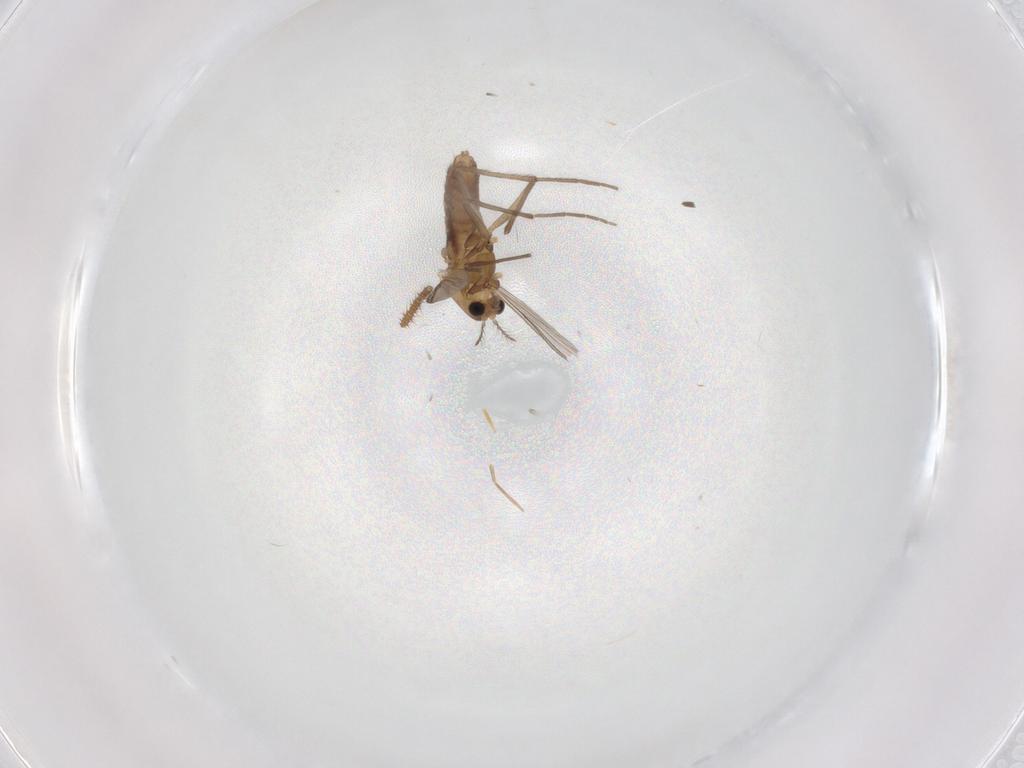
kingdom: Animalia
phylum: Arthropoda
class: Insecta
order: Diptera
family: Chironomidae
